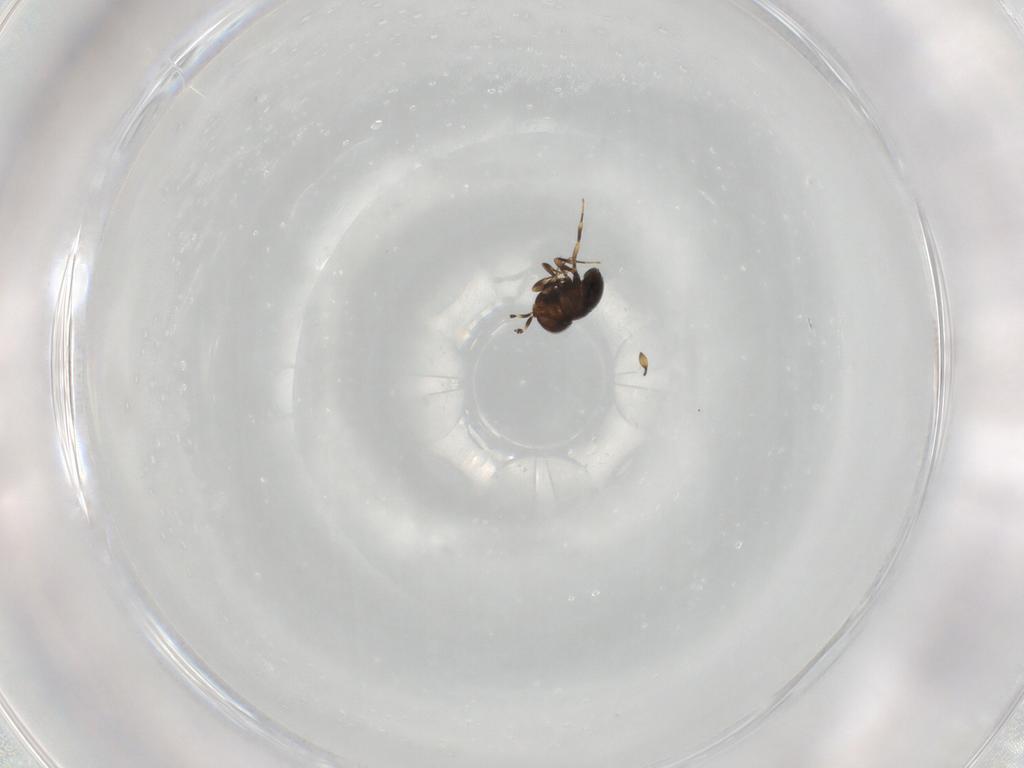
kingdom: Animalia
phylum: Arthropoda
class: Insecta
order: Hymenoptera
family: Scelionidae
